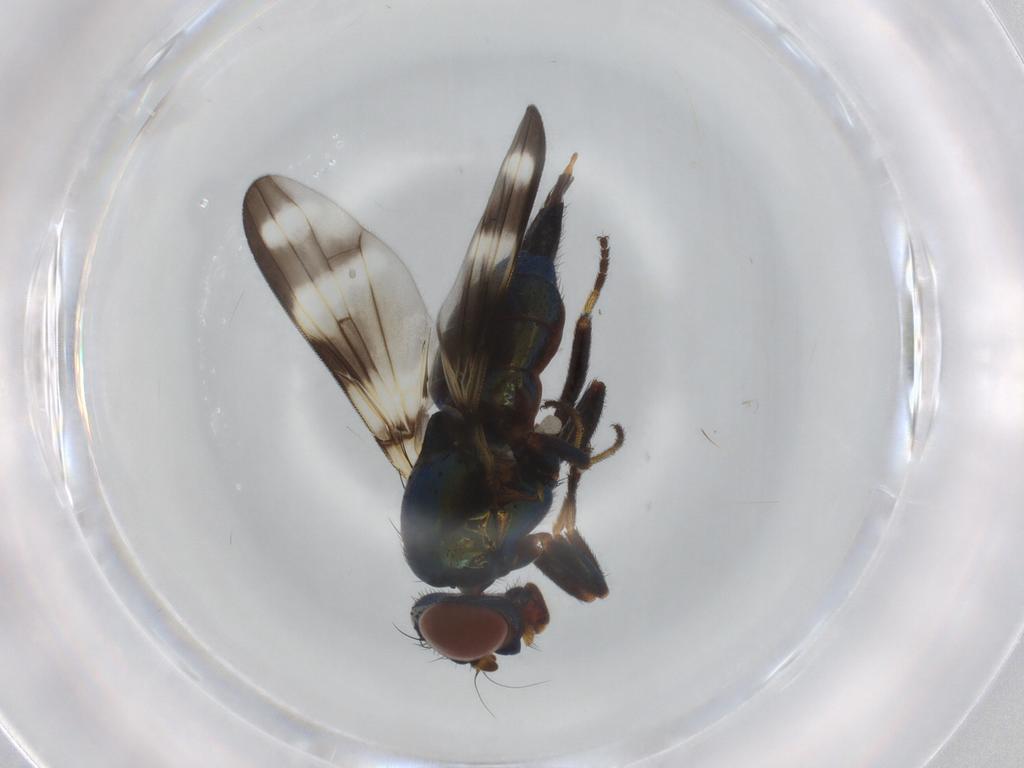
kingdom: Animalia
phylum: Arthropoda
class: Insecta
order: Diptera
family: Ulidiidae
